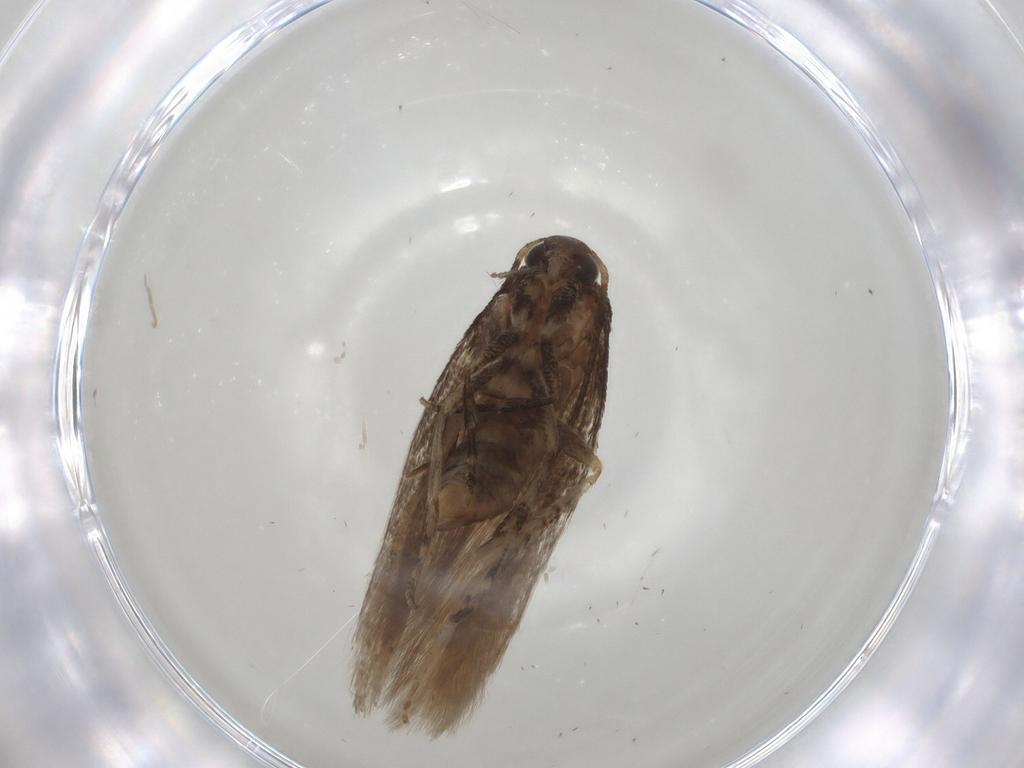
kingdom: Animalia
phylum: Arthropoda
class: Insecta
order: Lepidoptera
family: Gelechiidae
